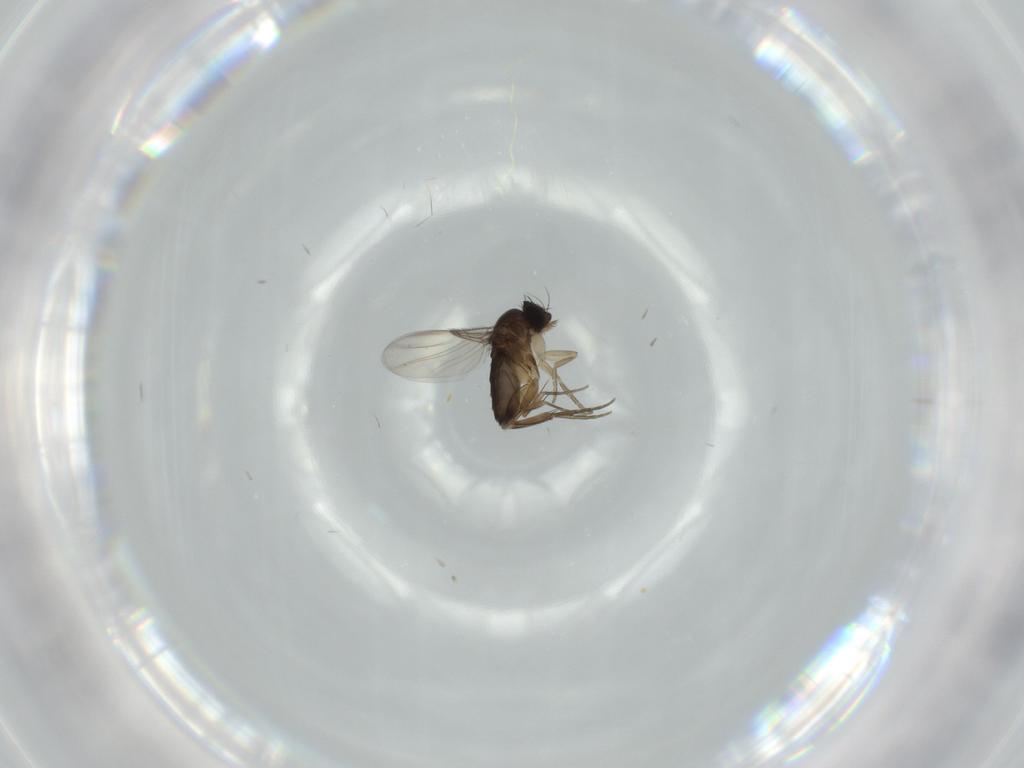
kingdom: Animalia
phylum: Arthropoda
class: Insecta
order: Diptera
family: Phoridae
